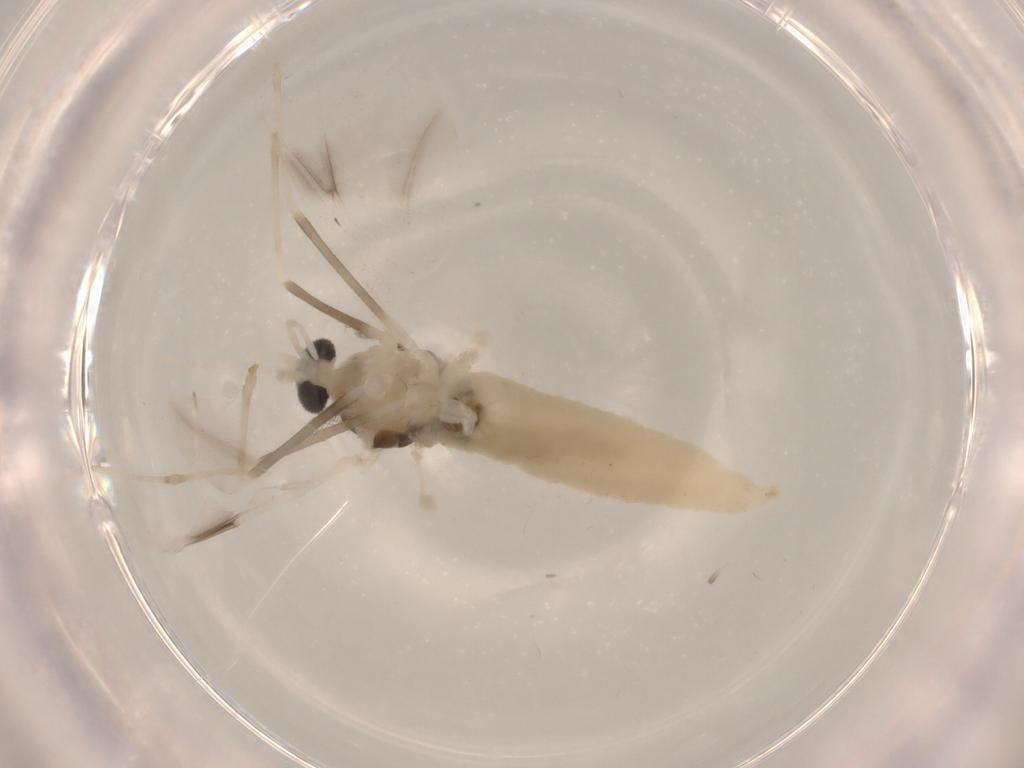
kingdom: Animalia
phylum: Arthropoda
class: Insecta
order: Diptera
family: Cecidomyiidae
